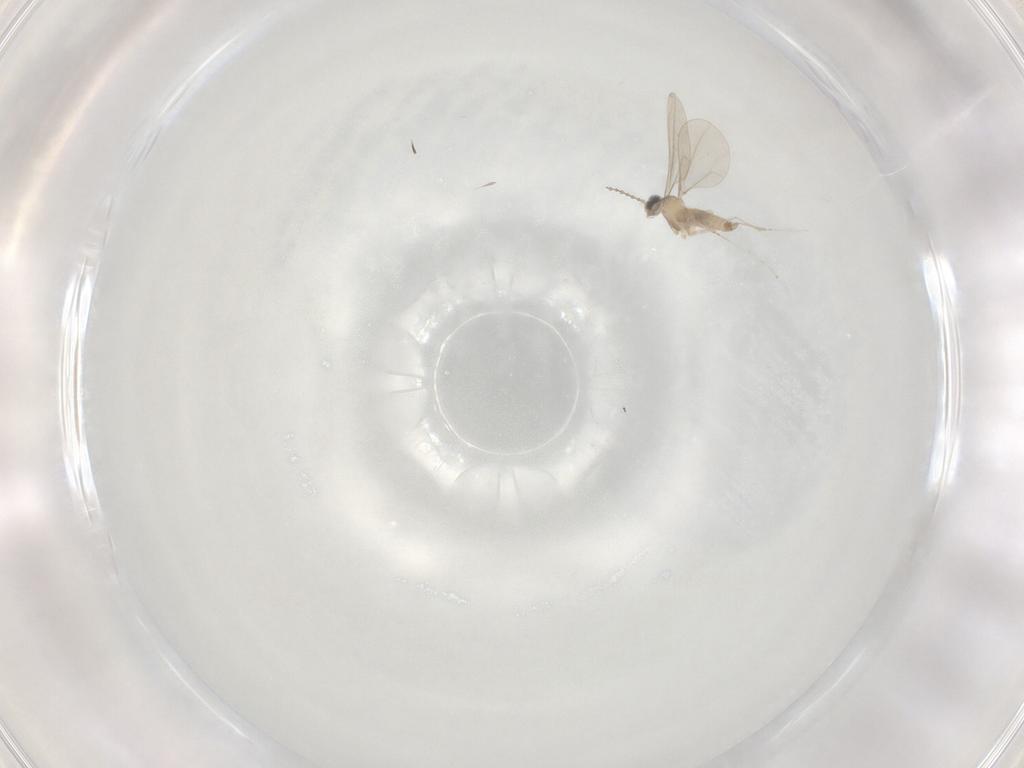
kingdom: Animalia
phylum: Arthropoda
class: Insecta
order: Diptera
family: Cecidomyiidae
